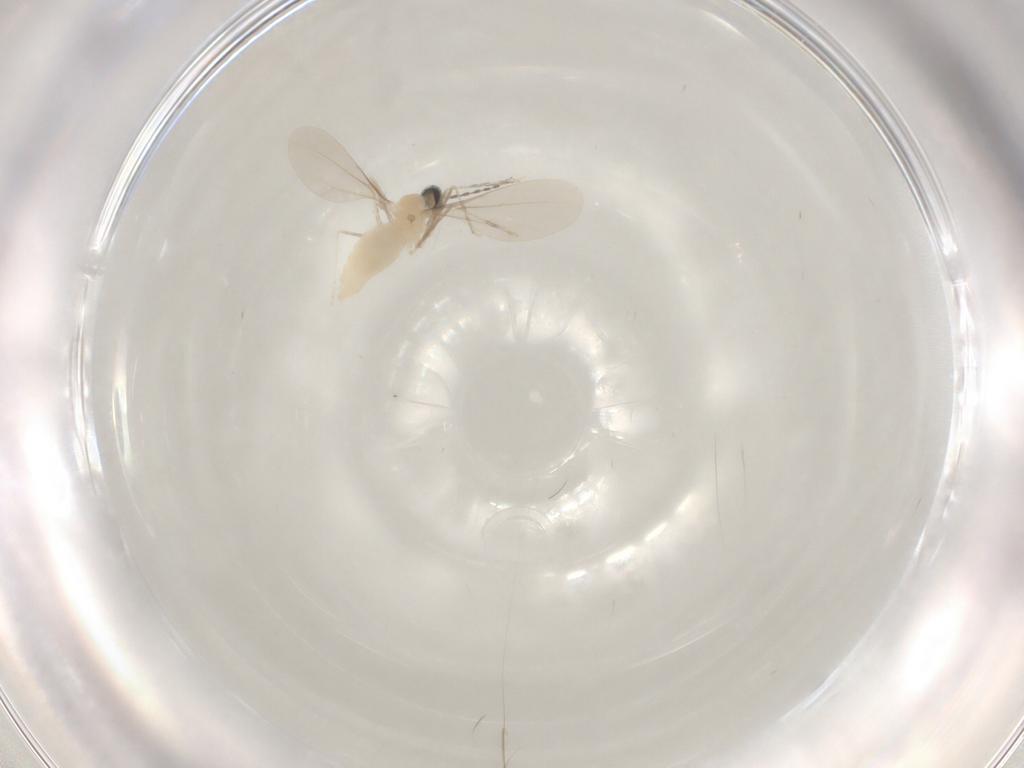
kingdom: Animalia
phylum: Arthropoda
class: Insecta
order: Diptera
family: Cecidomyiidae
